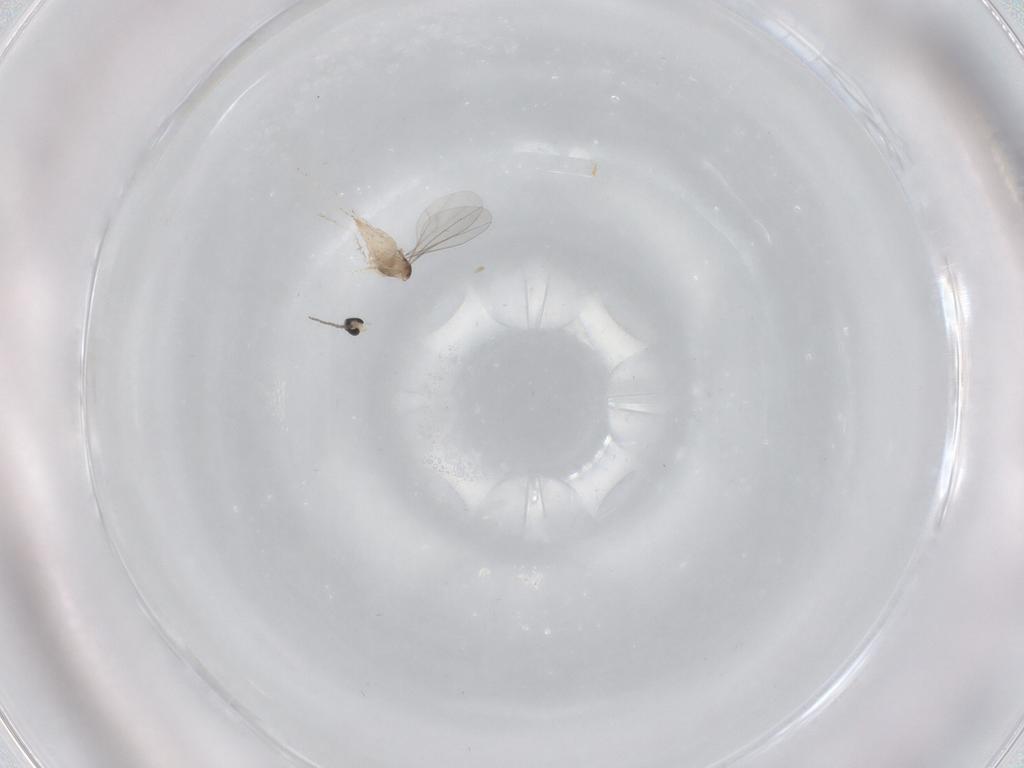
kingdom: Animalia
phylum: Arthropoda
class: Insecta
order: Diptera
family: Cecidomyiidae
